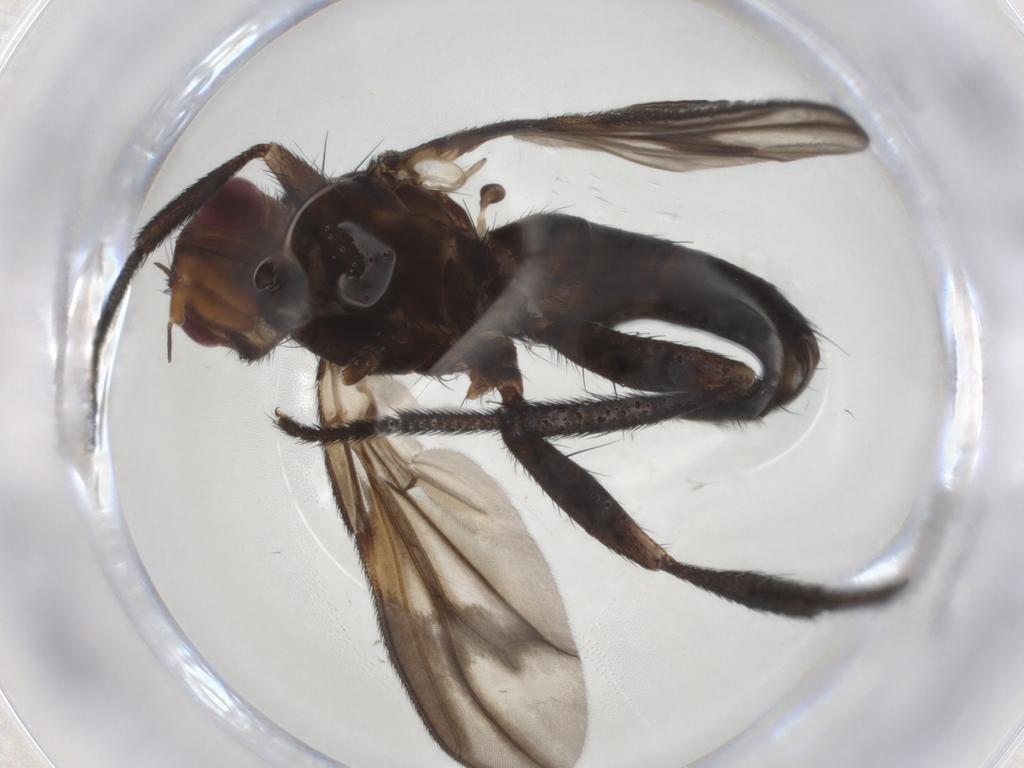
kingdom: Animalia
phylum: Arthropoda
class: Insecta
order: Diptera
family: Calliphoridae
